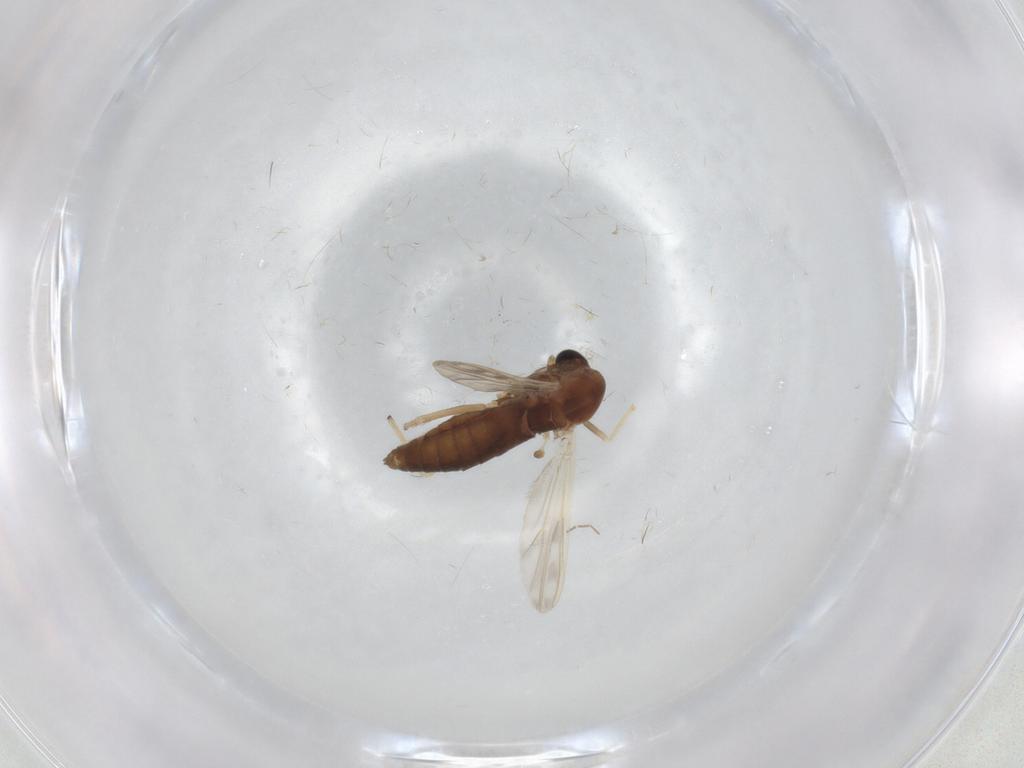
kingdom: Animalia
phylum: Arthropoda
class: Insecta
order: Diptera
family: Chironomidae
